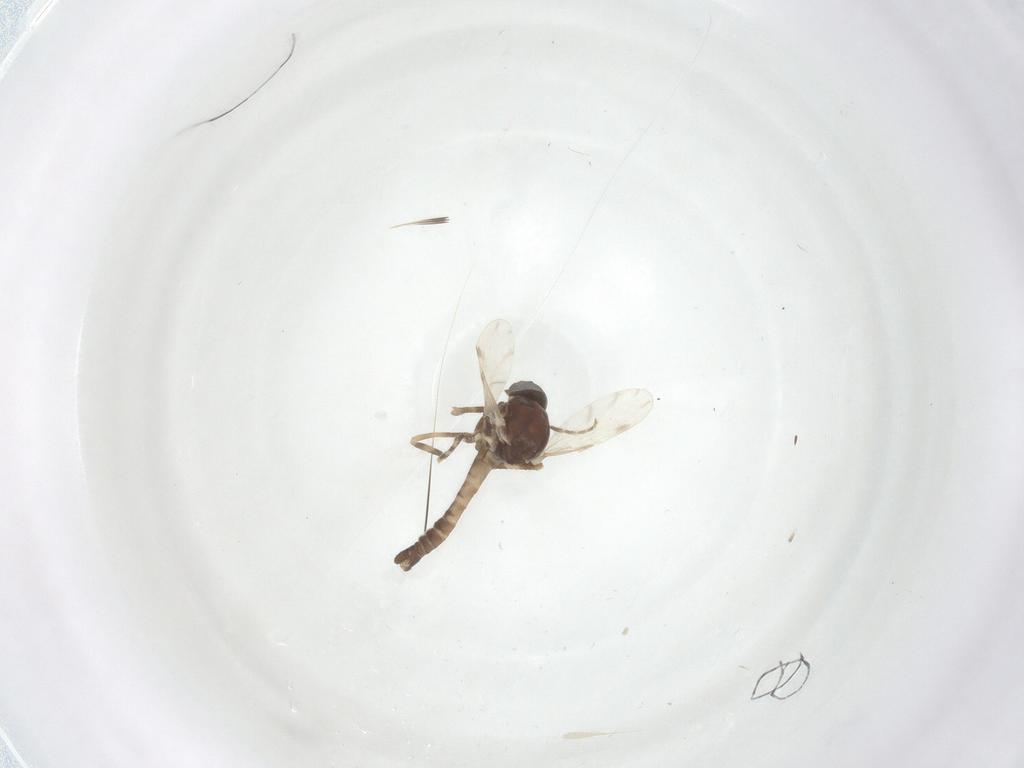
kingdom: Animalia
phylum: Arthropoda
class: Insecta
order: Diptera
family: Ceratopogonidae
